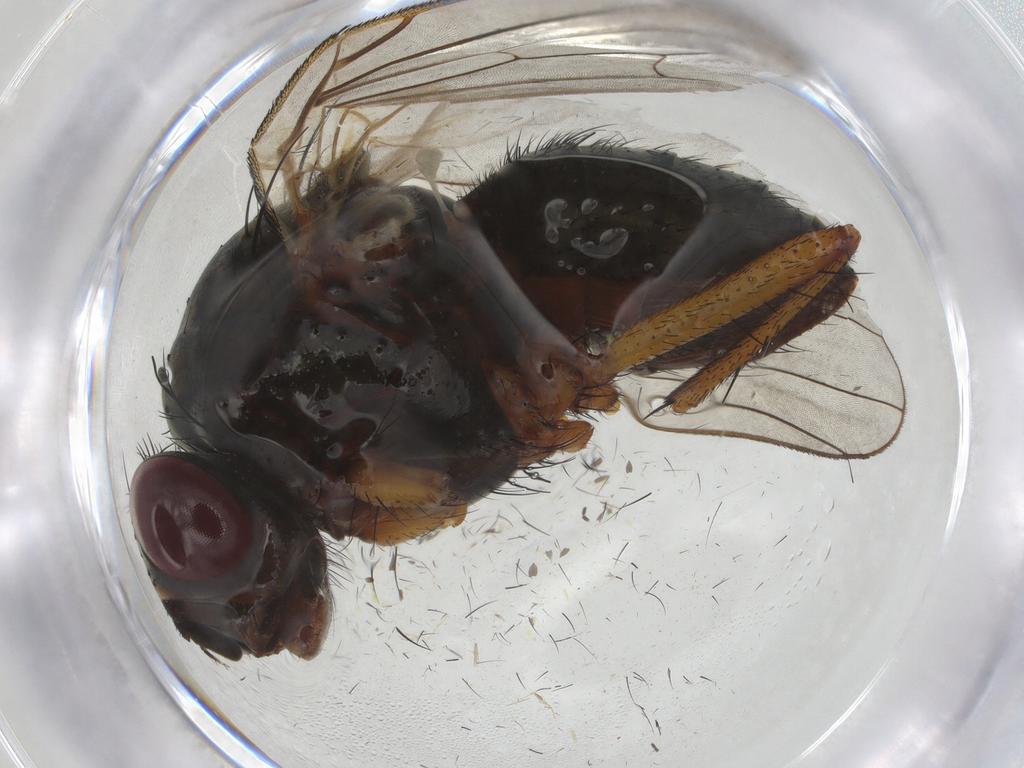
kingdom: Animalia
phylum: Arthropoda
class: Insecta
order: Diptera
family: Anthomyiidae
